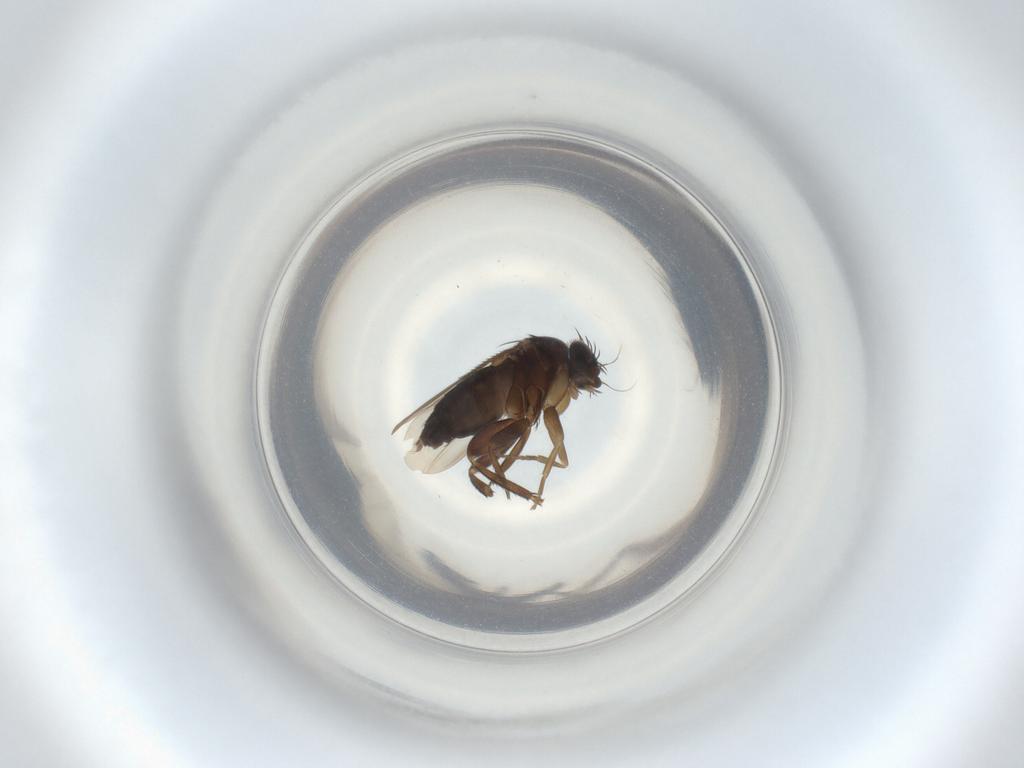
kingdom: Animalia
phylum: Arthropoda
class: Insecta
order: Diptera
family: Phoridae
